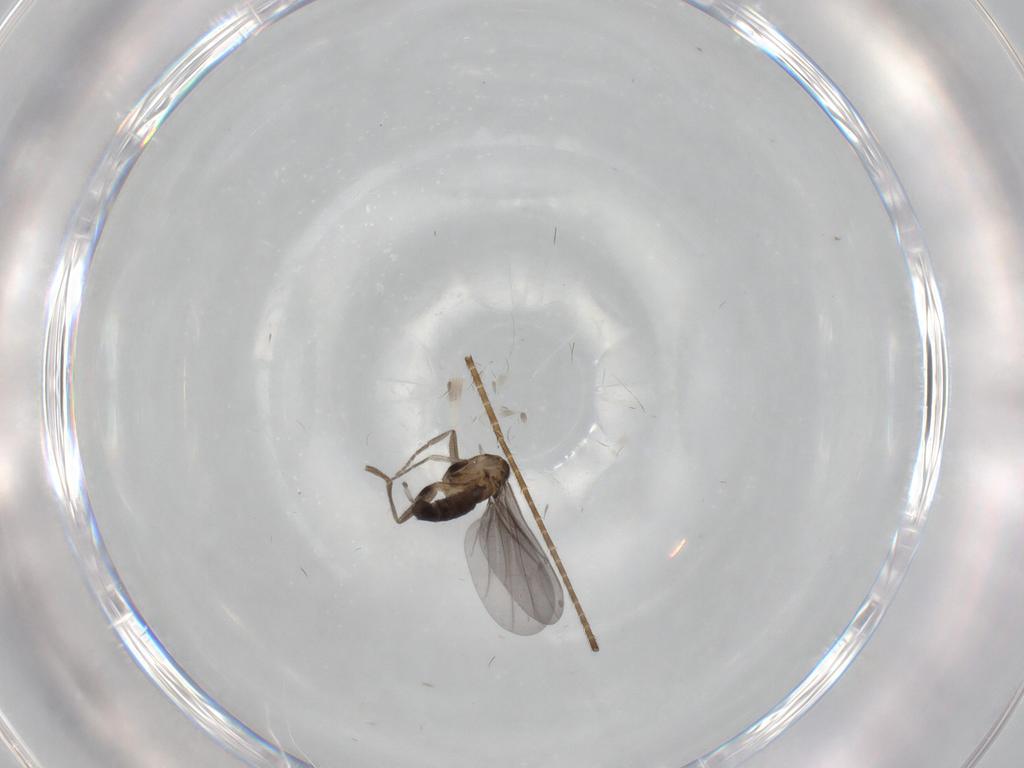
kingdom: Animalia
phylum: Arthropoda
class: Insecta
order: Diptera
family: Phoridae
